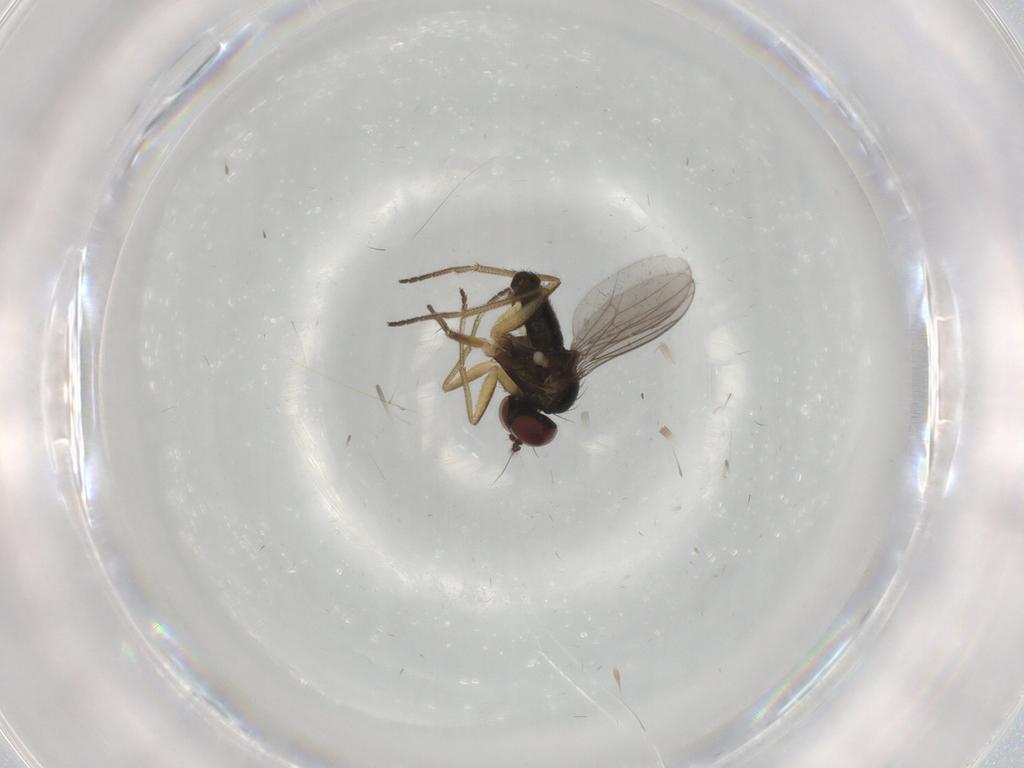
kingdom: Animalia
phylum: Arthropoda
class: Insecta
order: Diptera
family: Dolichopodidae
